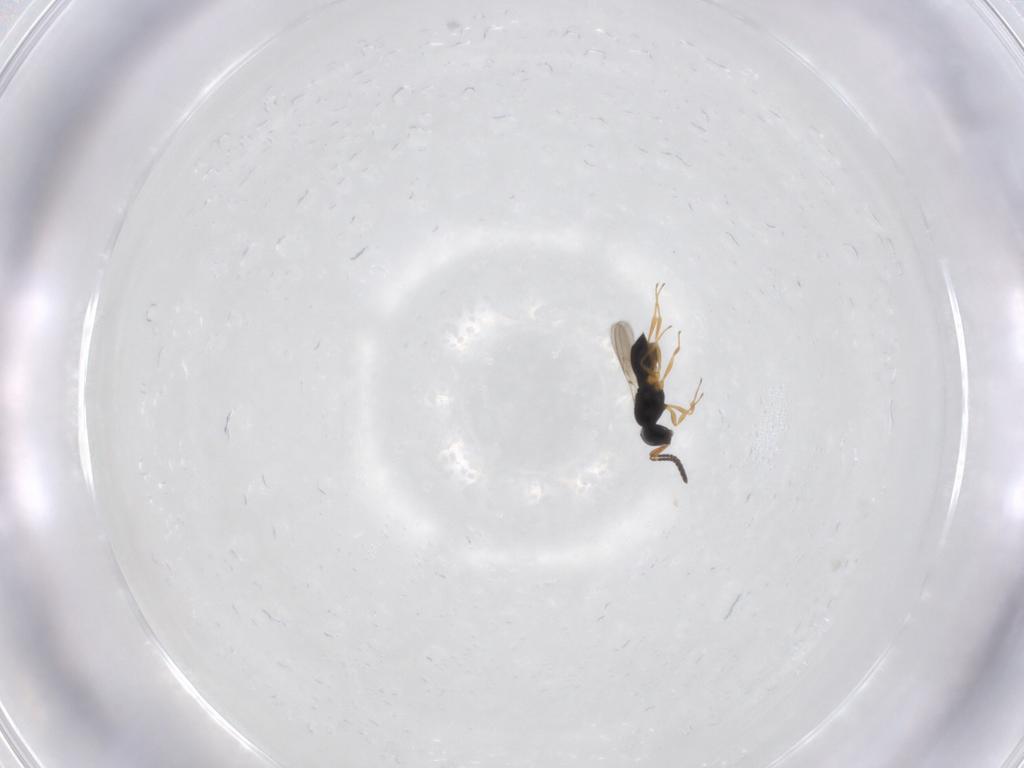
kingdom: Animalia
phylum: Arthropoda
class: Insecta
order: Hymenoptera
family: Scelionidae
